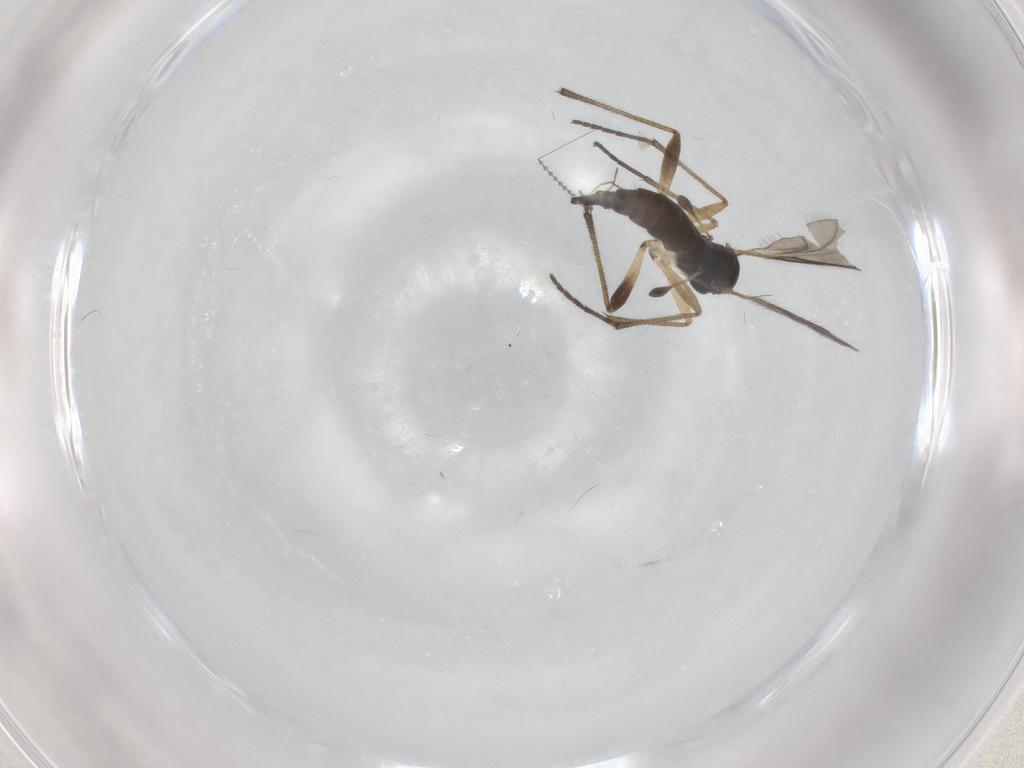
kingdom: Animalia
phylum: Arthropoda
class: Insecta
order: Diptera
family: Sciaridae
